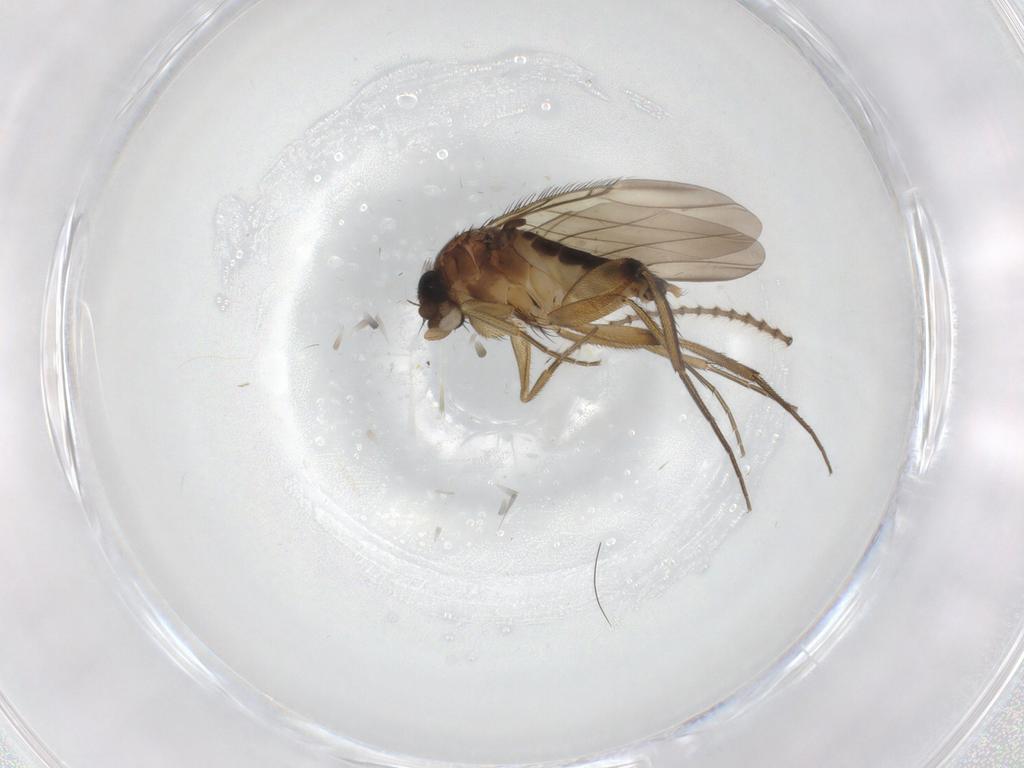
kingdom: Animalia
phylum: Arthropoda
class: Insecta
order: Diptera
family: Phoridae
